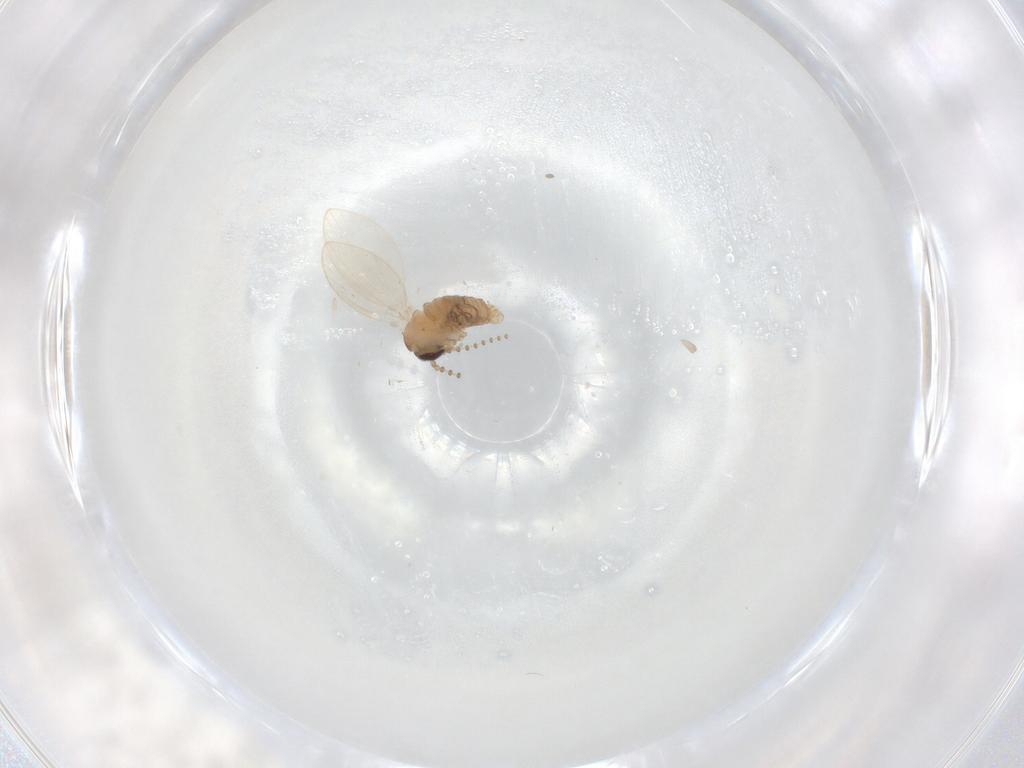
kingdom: Animalia
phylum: Arthropoda
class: Insecta
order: Diptera
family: Psychodidae
